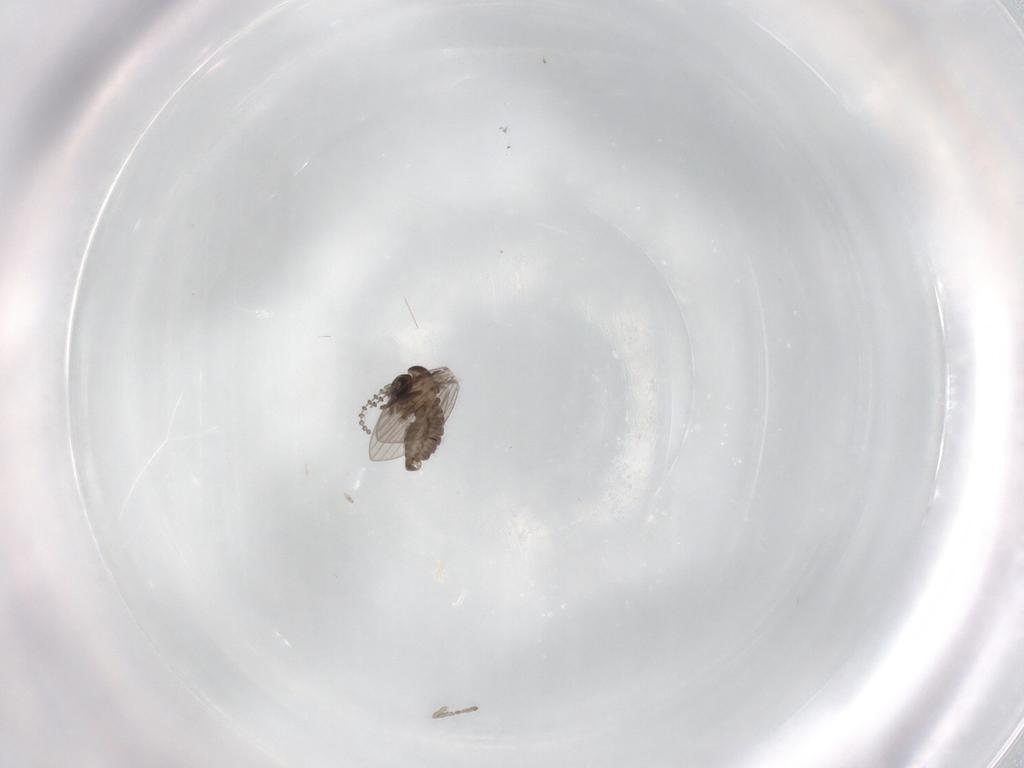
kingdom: Animalia
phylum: Arthropoda
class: Insecta
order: Diptera
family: Psychodidae
